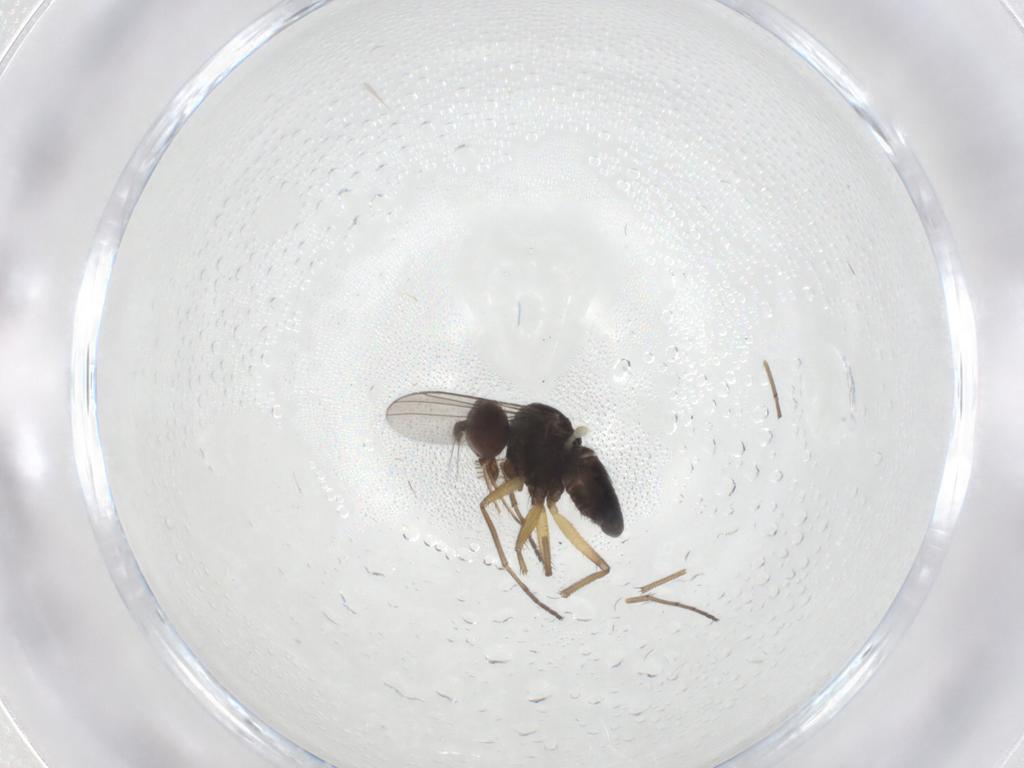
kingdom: Animalia
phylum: Arthropoda
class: Insecta
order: Diptera
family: Dolichopodidae
